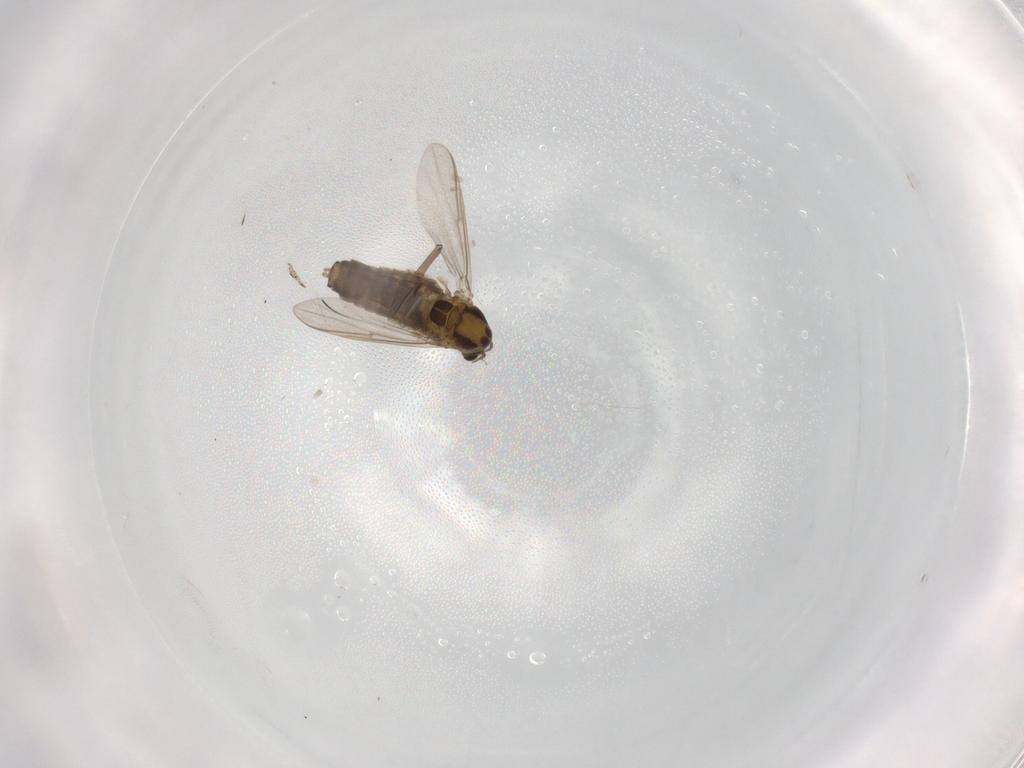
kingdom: Animalia
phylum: Arthropoda
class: Insecta
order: Diptera
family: Chironomidae
